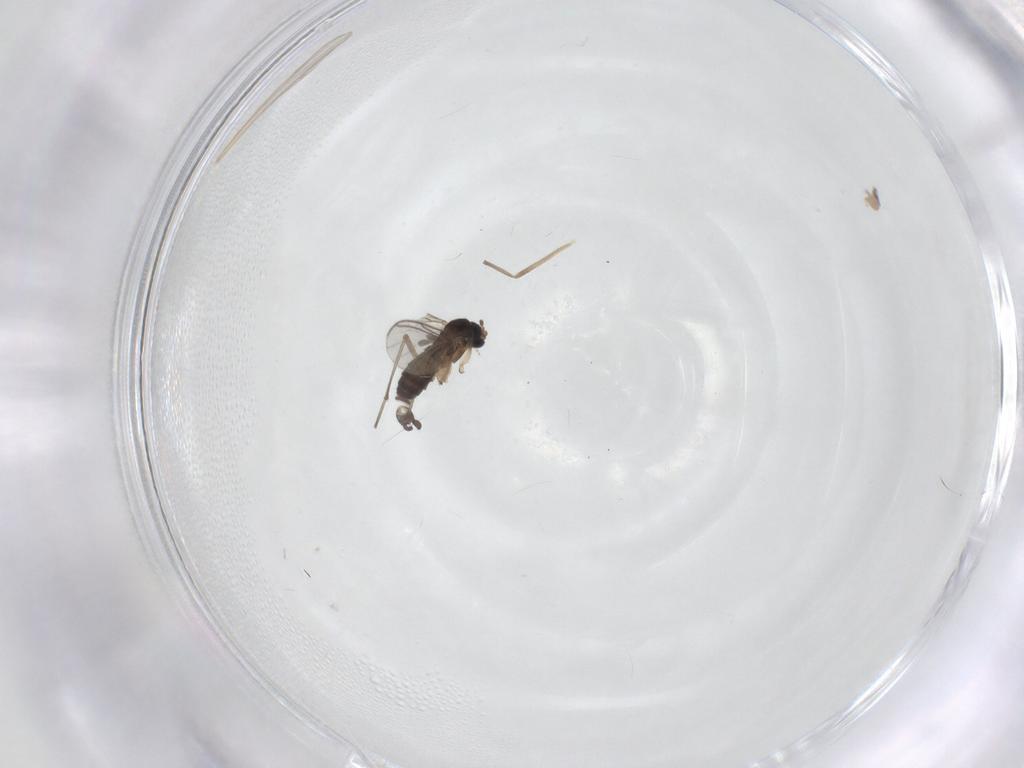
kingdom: Animalia
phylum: Arthropoda
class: Insecta
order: Diptera
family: Sciaridae
